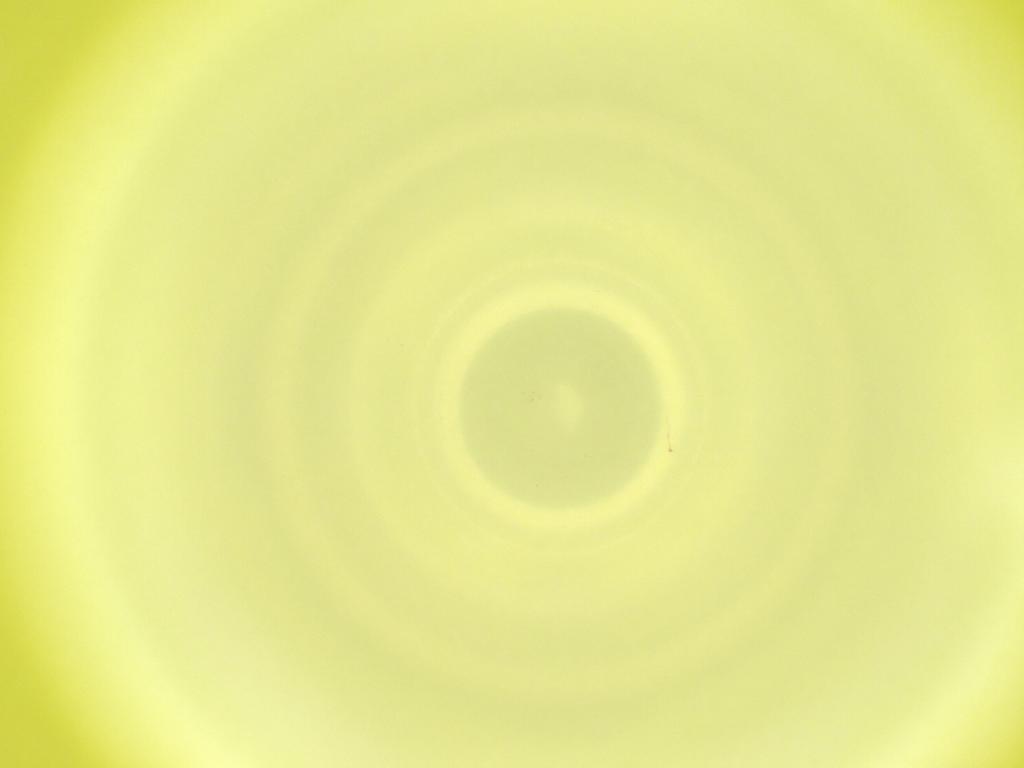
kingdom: Animalia
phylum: Arthropoda
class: Insecta
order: Diptera
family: Cecidomyiidae
